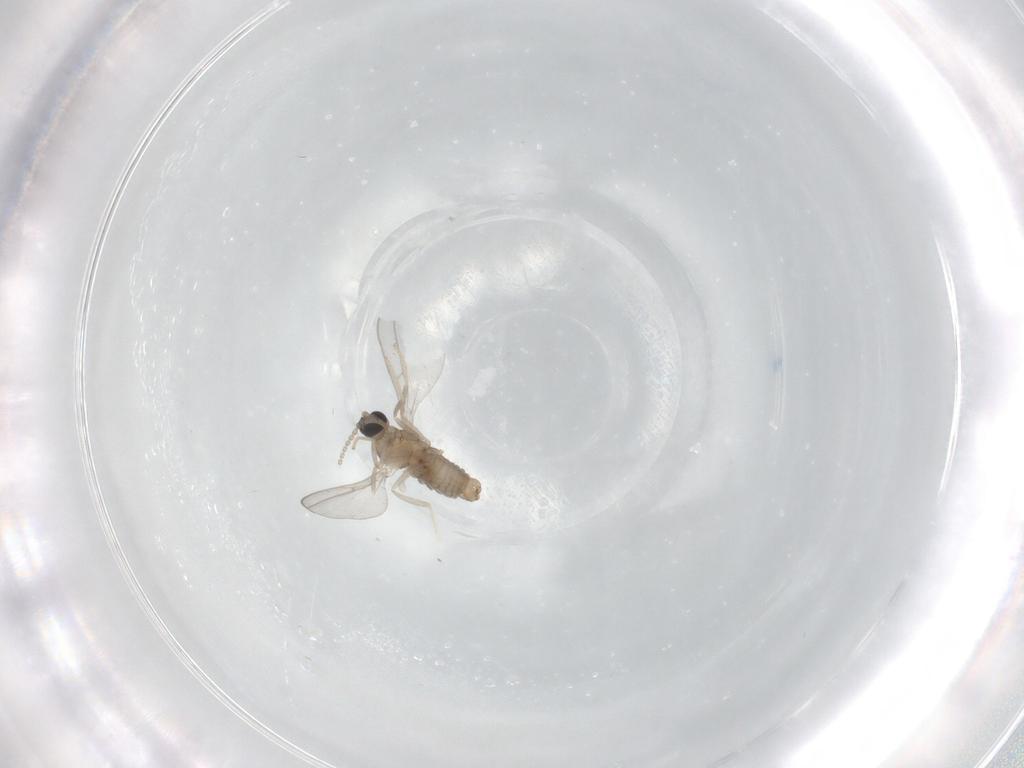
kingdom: Animalia
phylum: Arthropoda
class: Insecta
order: Diptera
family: Cecidomyiidae
